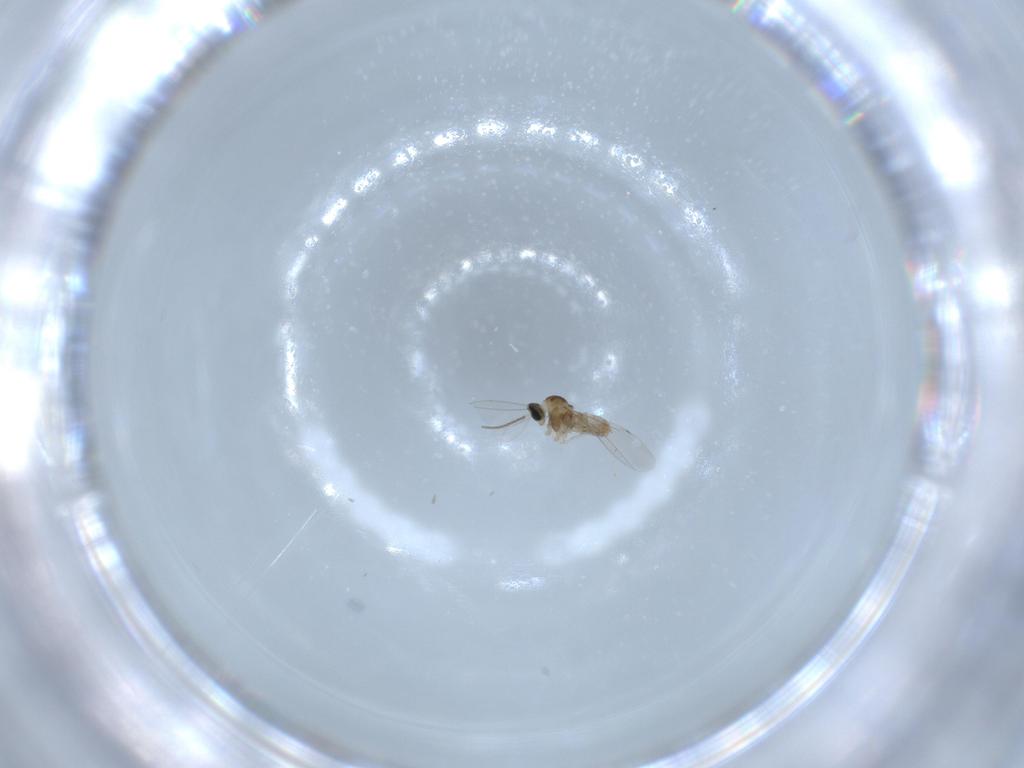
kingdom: Animalia
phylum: Arthropoda
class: Insecta
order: Diptera
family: Cecidomyiidae
